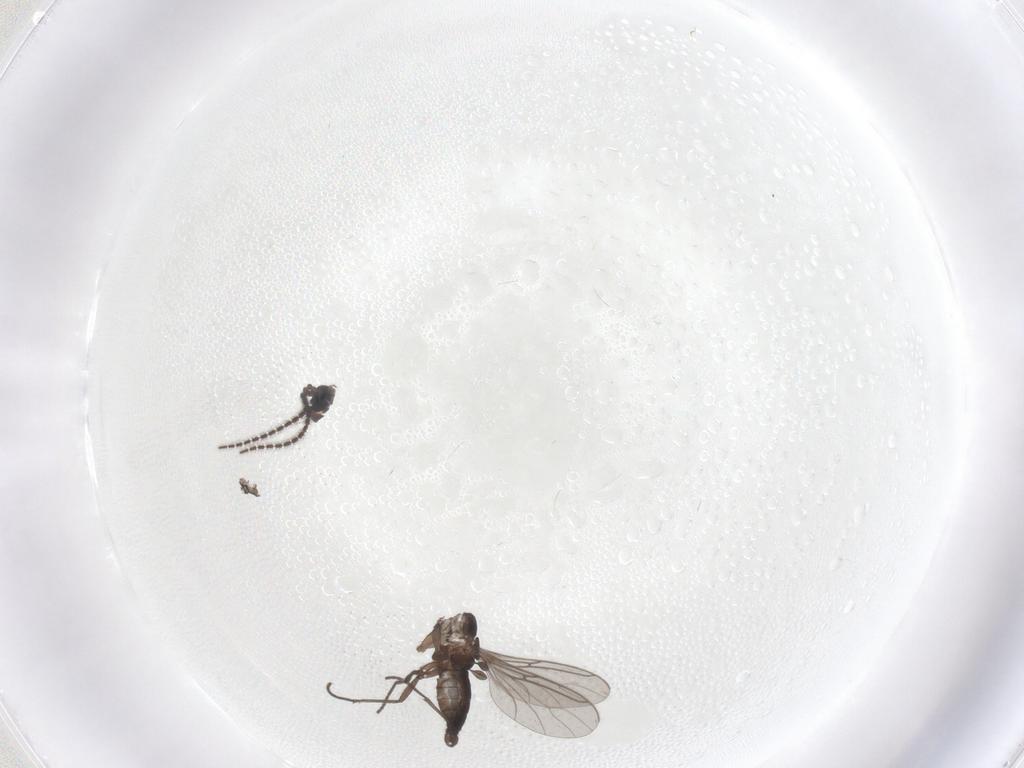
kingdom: Animalia
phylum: Arthropoda
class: Insecta
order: Diptera
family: Sciaridae
